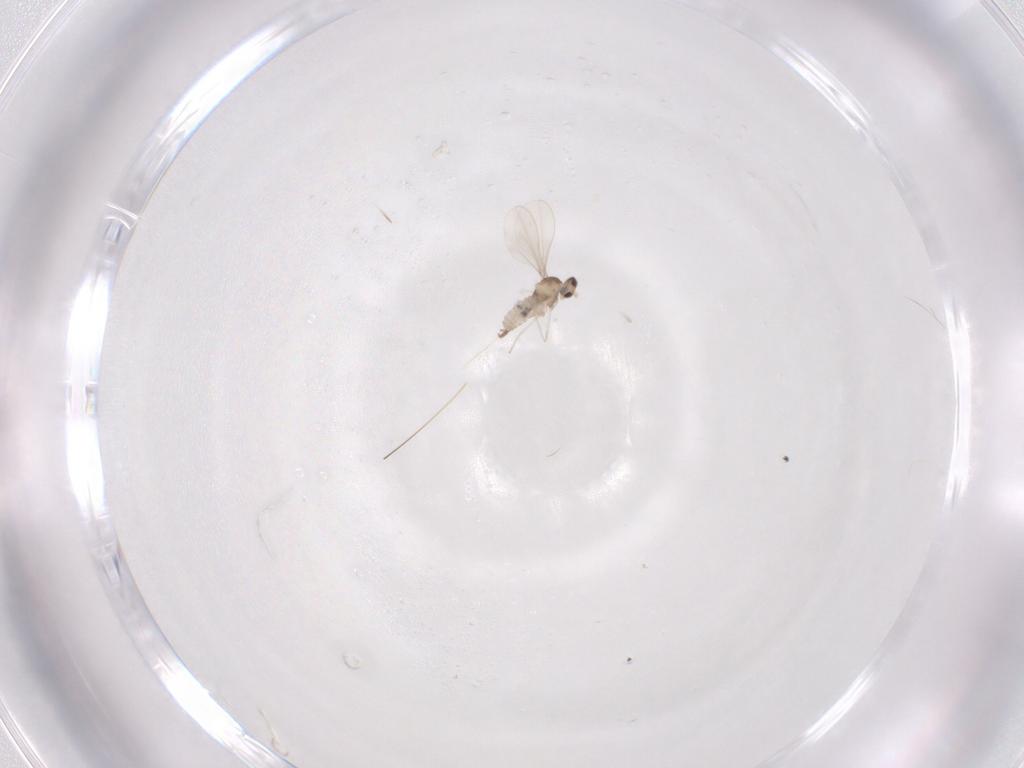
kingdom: Animalia
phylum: Arthropoda
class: Insecta
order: Diptera
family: Cecidomyiidae
